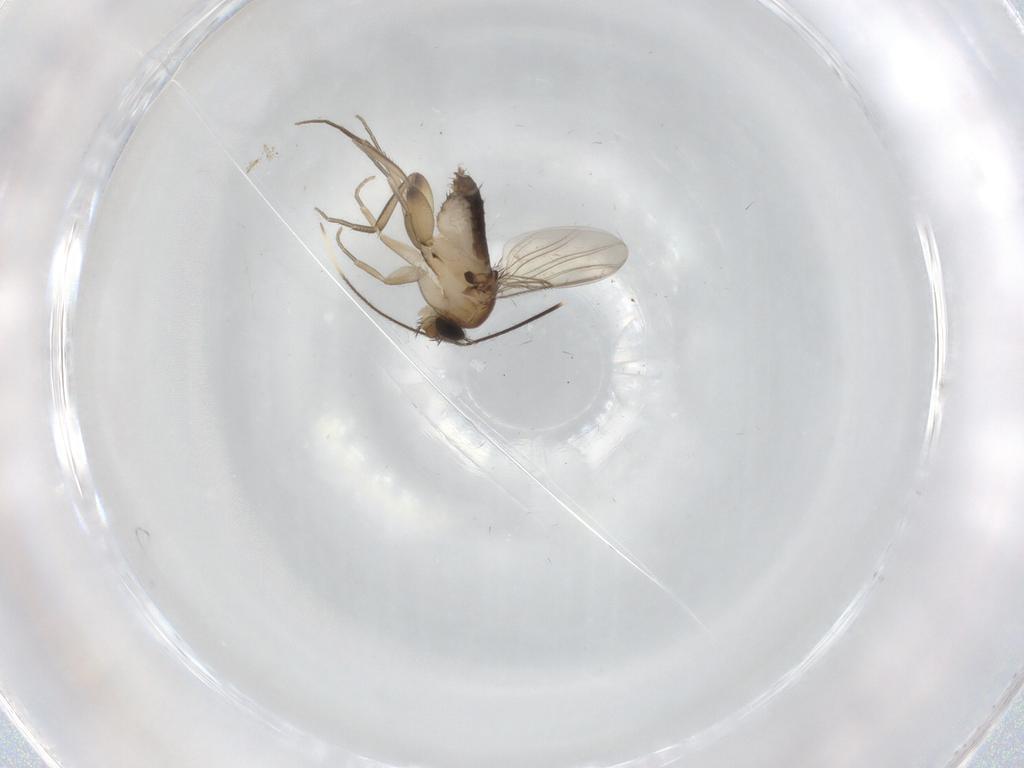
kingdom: Animalia
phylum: Arthropoda
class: Insecta
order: Diptera
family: Phoridae
